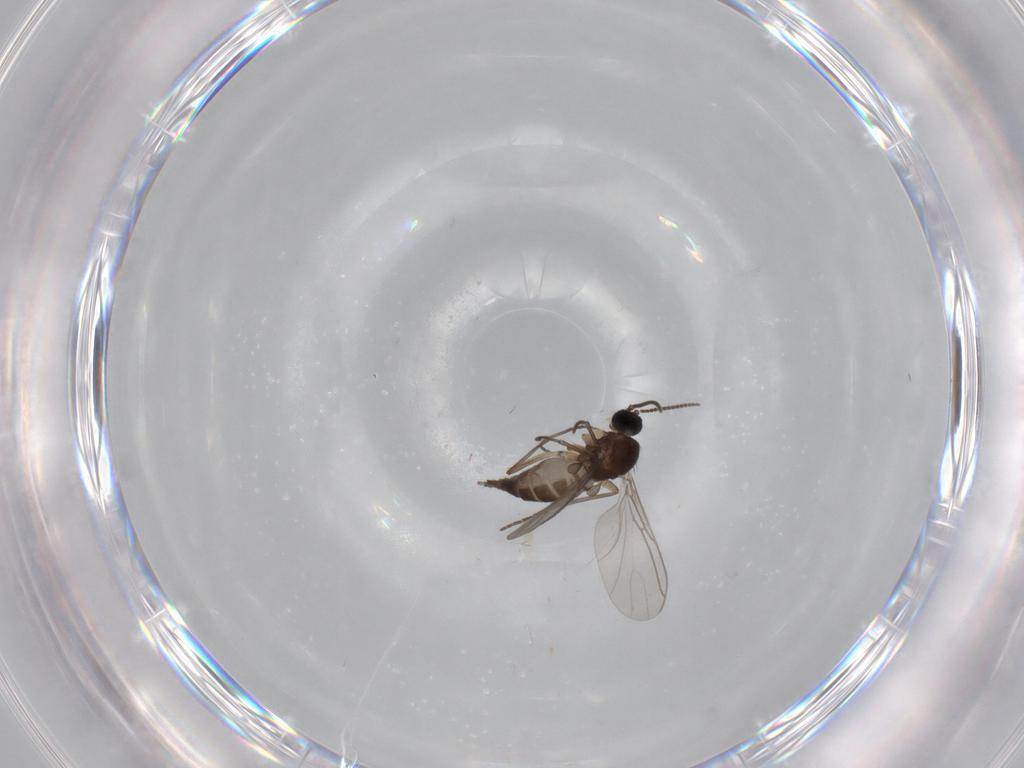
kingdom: Animalia
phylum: Arthropoda
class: Insecta
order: Diptera
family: Sciaridae
